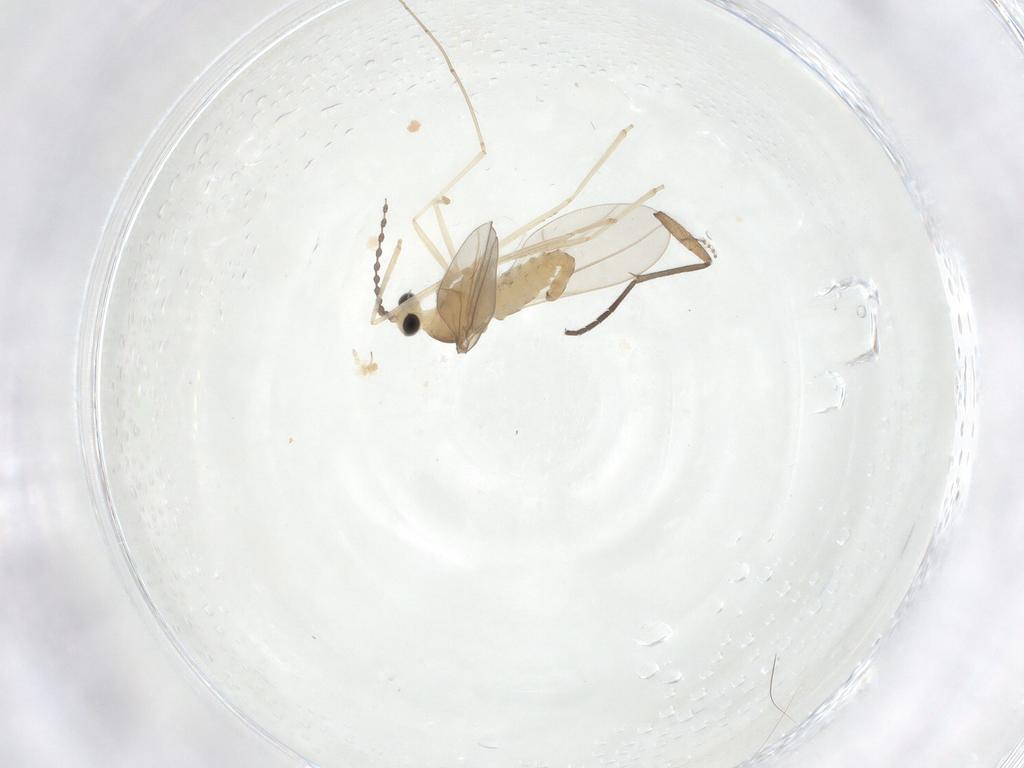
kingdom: Animalia
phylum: Arthropoda
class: Insecta
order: Diptera
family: Cecidomyiidae
